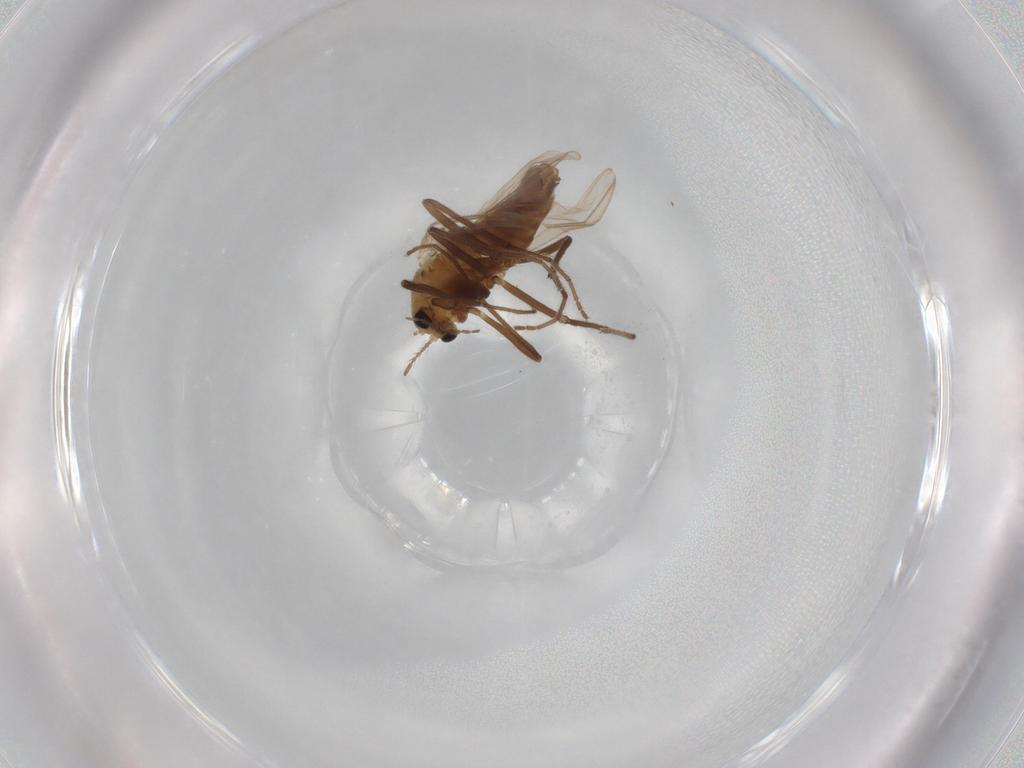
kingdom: Animalia
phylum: Arthropoda
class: Insecta
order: Diptera
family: Chironomidae
